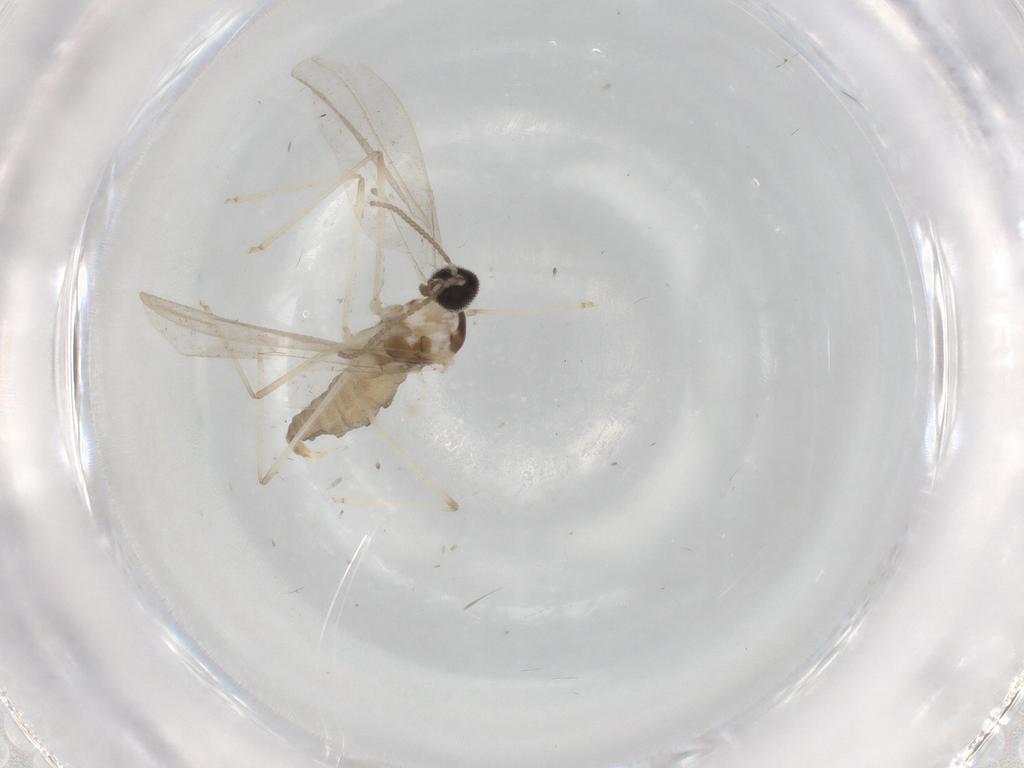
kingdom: Animalia
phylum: Arthropoda
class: Insecta
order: Diptera
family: Cecidomyiidae
